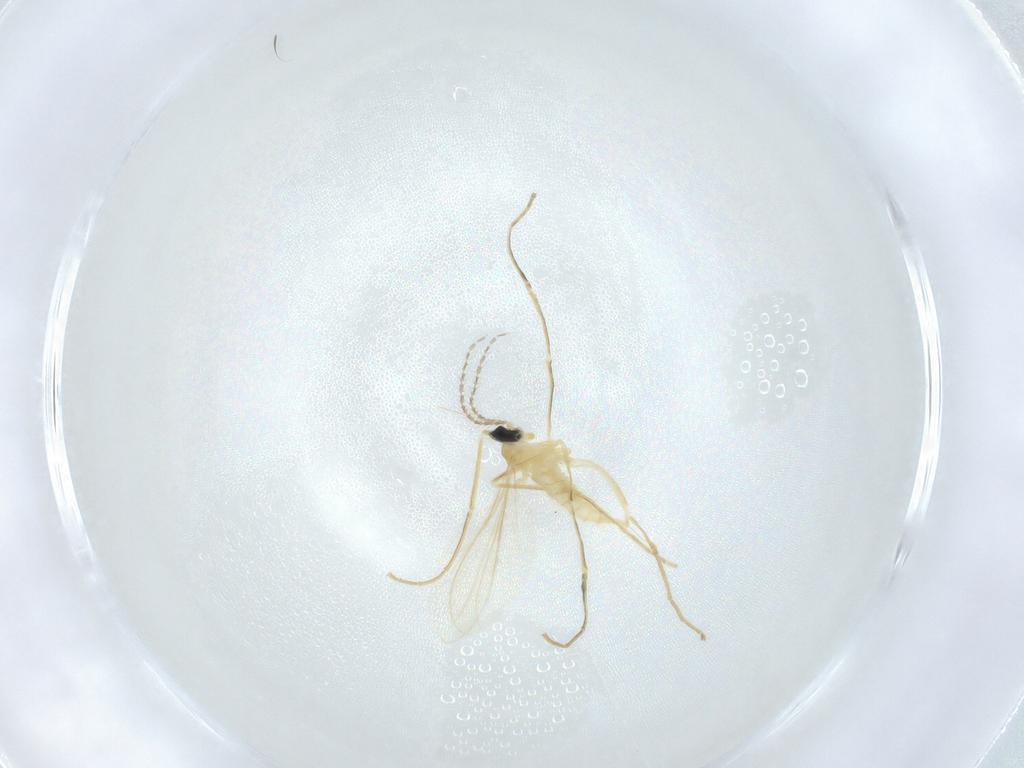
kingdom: Animalia
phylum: Arthropoda
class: Insecta
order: Diptera
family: Cecidomyiidae
